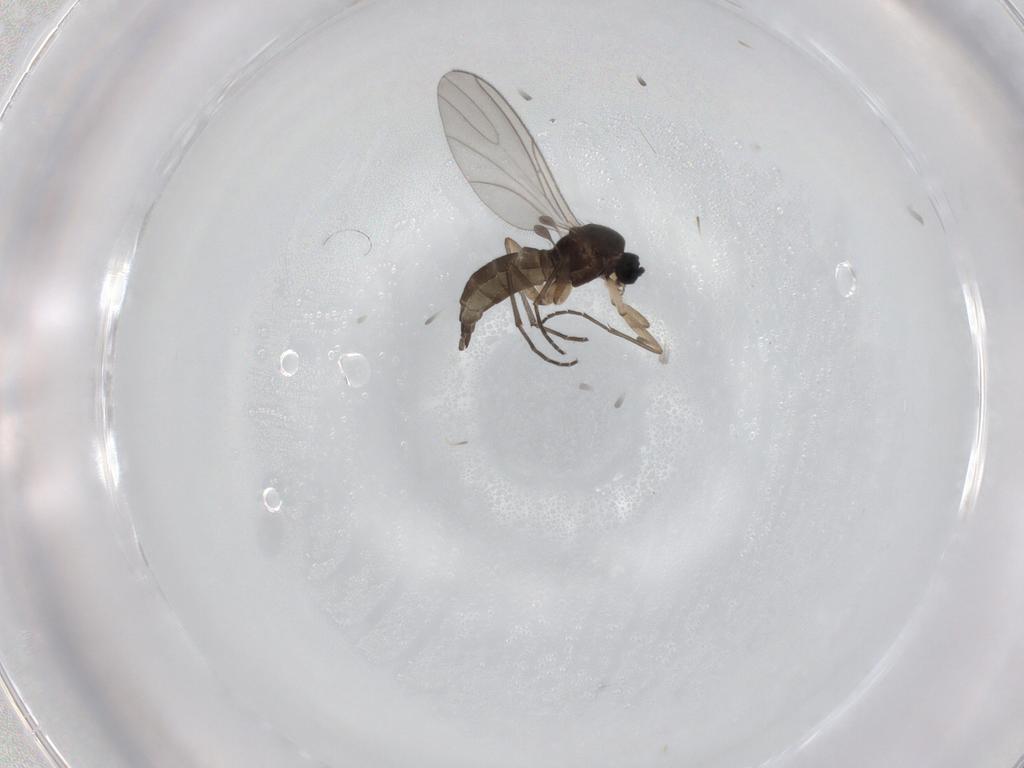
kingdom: Animalia
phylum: Arthropoda
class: Insecta
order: Diptera
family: Sciaridae
